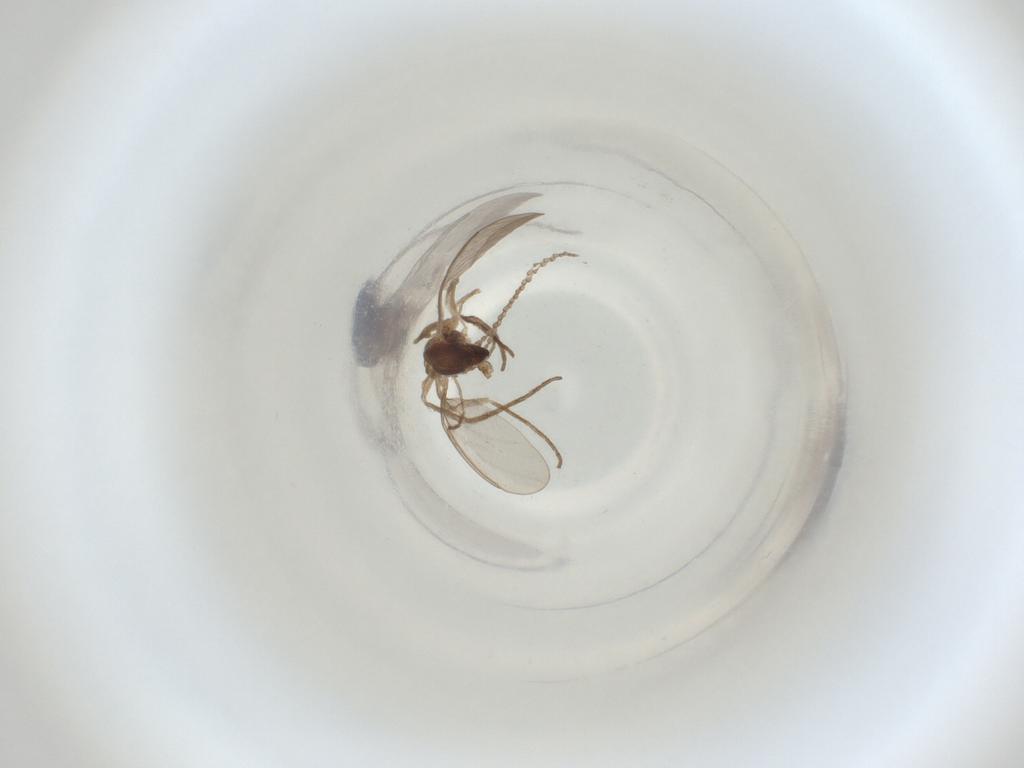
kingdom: Animalia
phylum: Arthropoda
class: Insecta
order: Diptera
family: Cecidomyiidae
